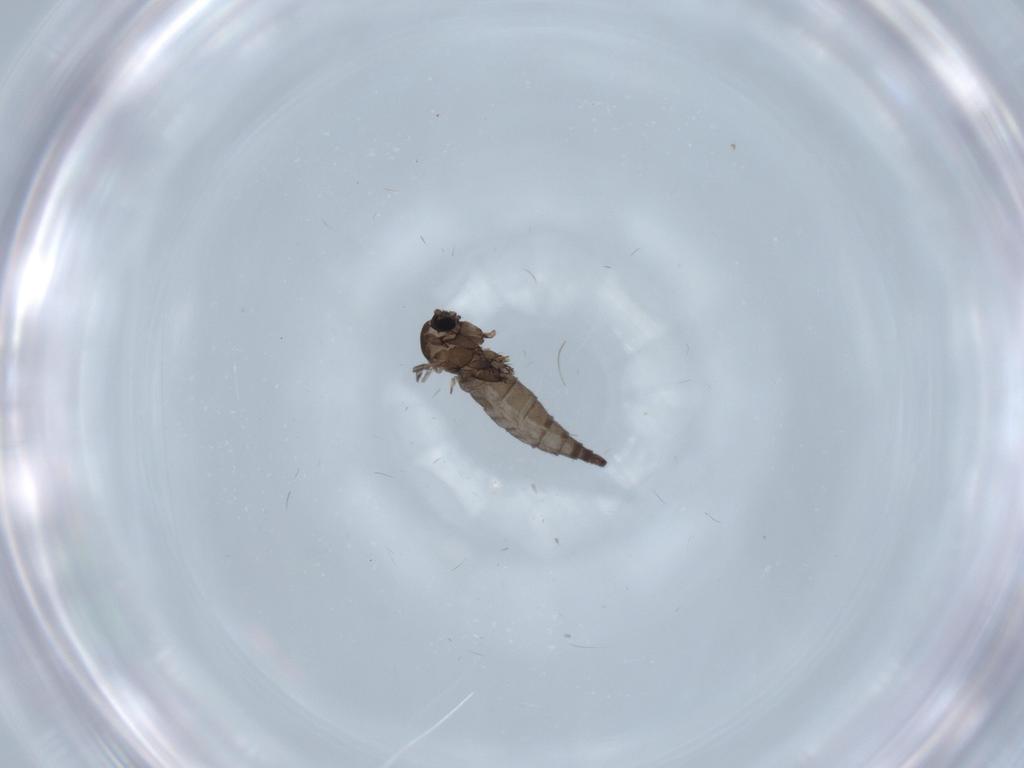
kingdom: Animalia
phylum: Arthropoda
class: Insecta
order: Diptera
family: Sciaridae
